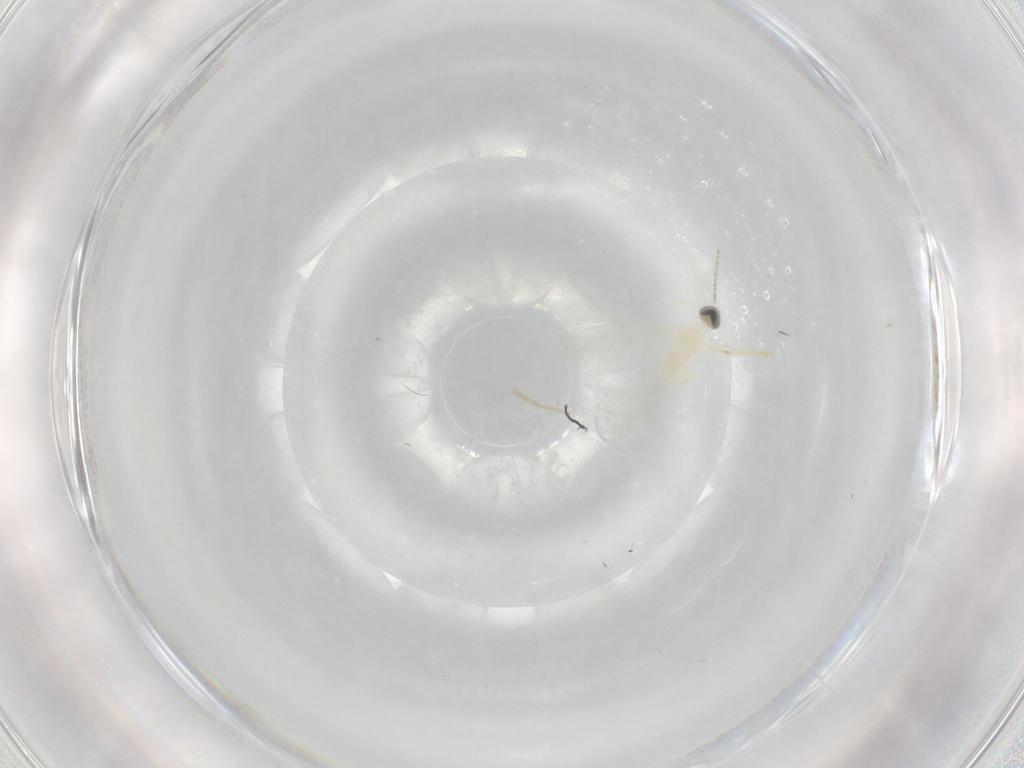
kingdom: Animalia
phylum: Arthropoda
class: Insecta
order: Diptera
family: Cecidomyiidae
